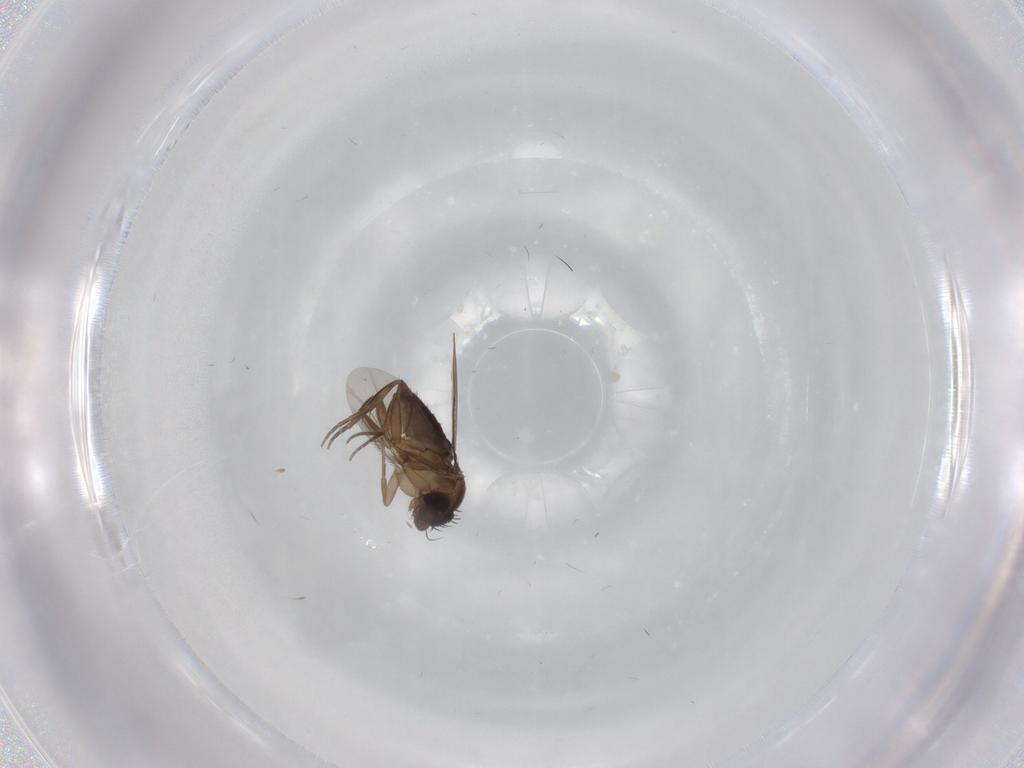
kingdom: Animalia
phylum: Arthropoda
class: Insecta
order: Diptera
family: Phoridae
